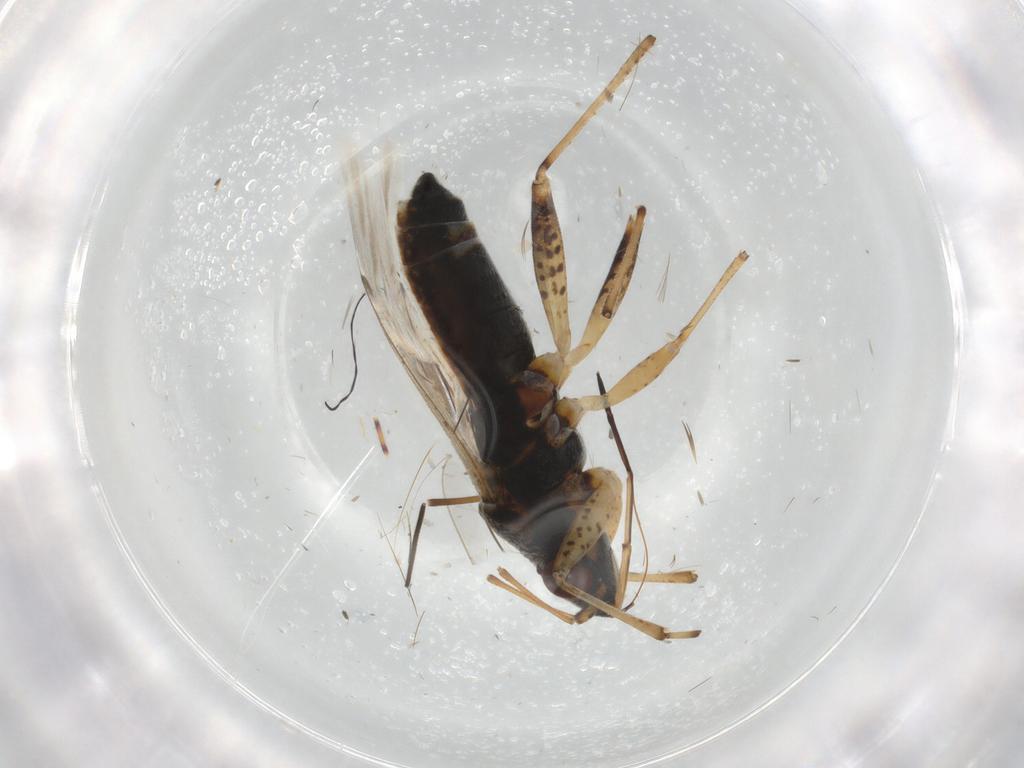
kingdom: Animalia
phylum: Arthropoda
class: Insecta
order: Hemiptera
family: Lygaeidae
